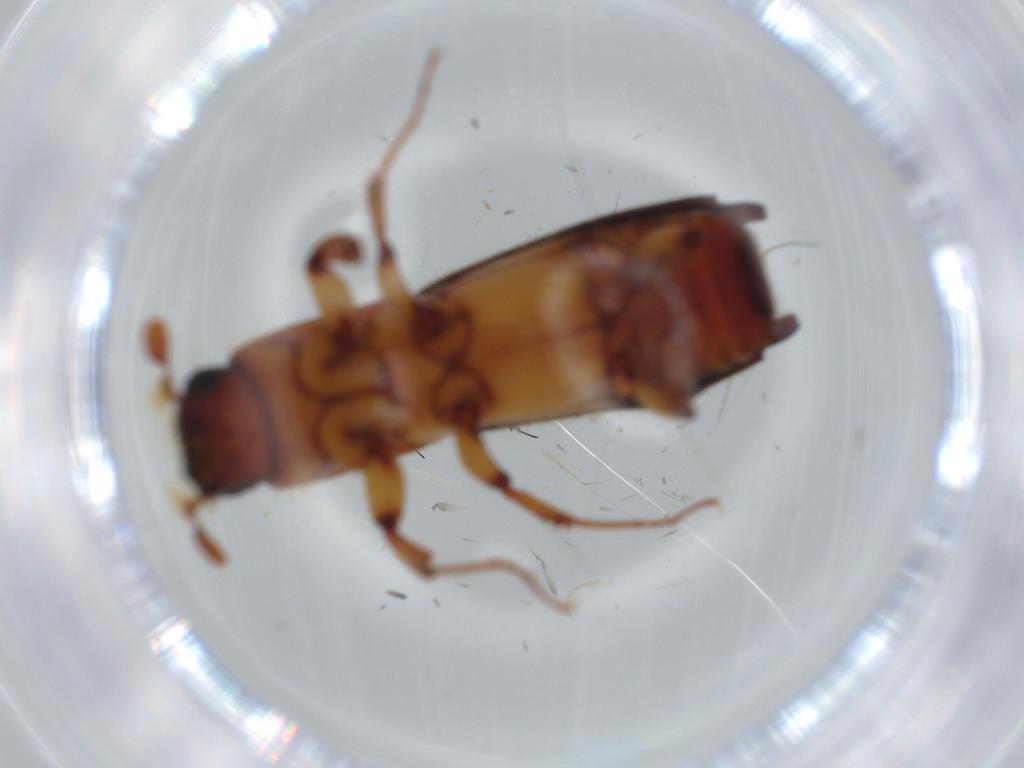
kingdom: Animalia
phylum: Arthropoda
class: Insecta
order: Coleoptera
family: Curculionidae
